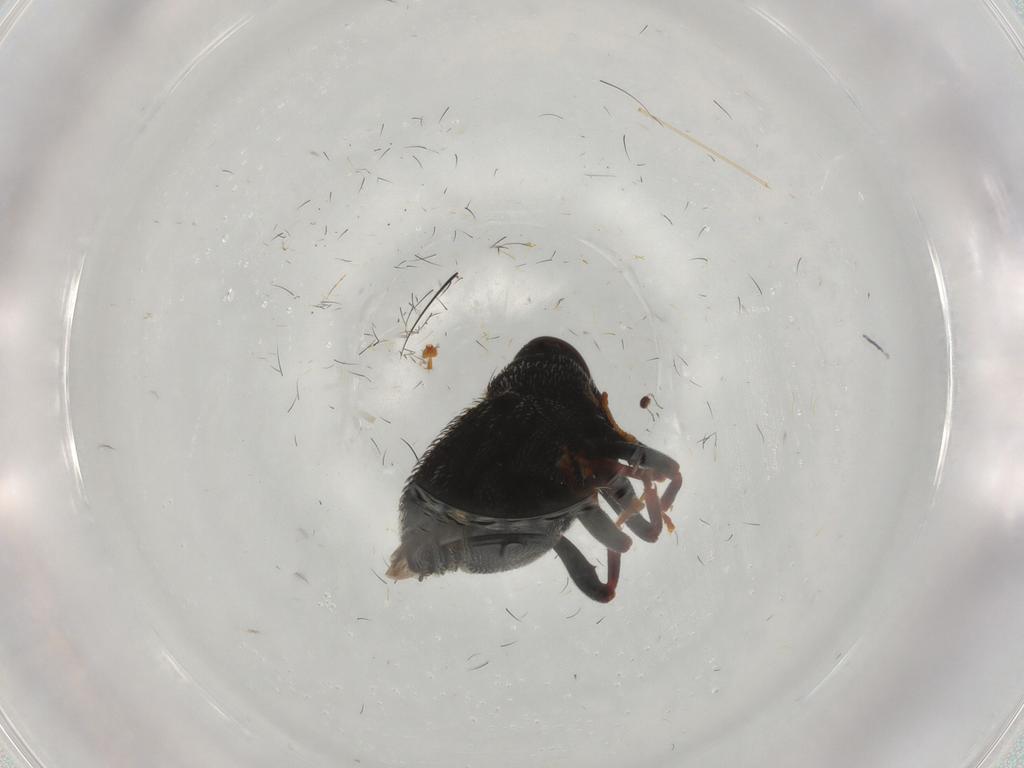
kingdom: Animalia
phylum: Arthropoda
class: Insecta
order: Coleoptera
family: Curculionidae
